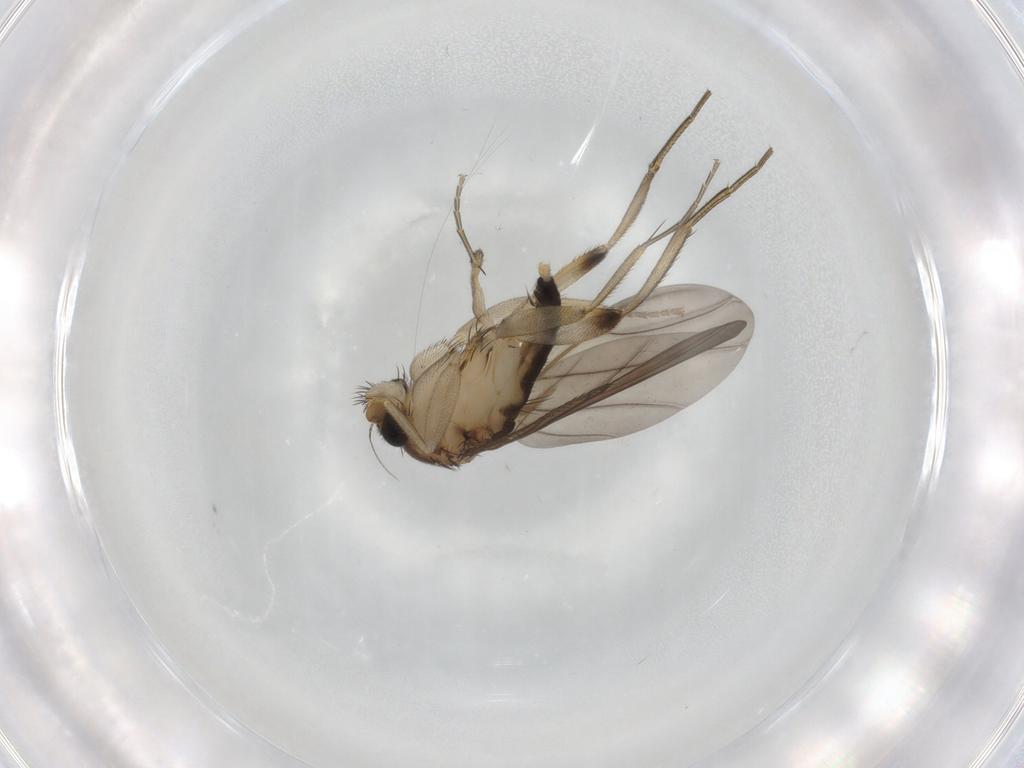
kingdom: Animalia
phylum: Arthropoda
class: Insecta
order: Diptera
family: Phoridae
